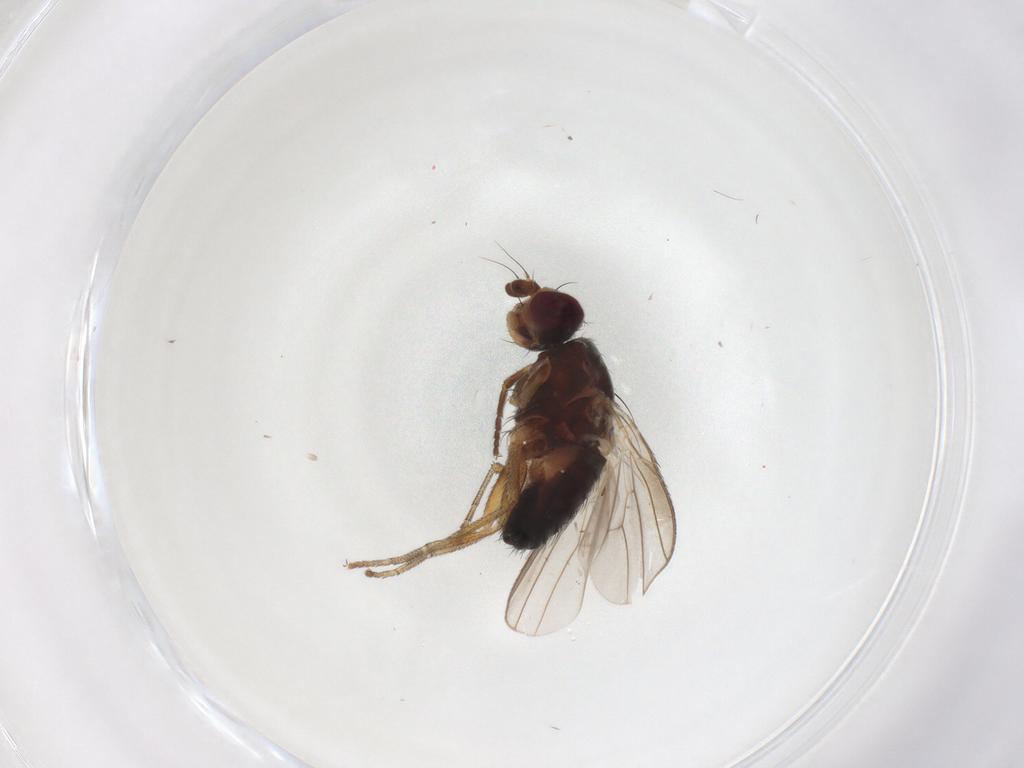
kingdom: Animalia
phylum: Arthropoda
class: Insecta
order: Diptera
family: Heleomyzidae
